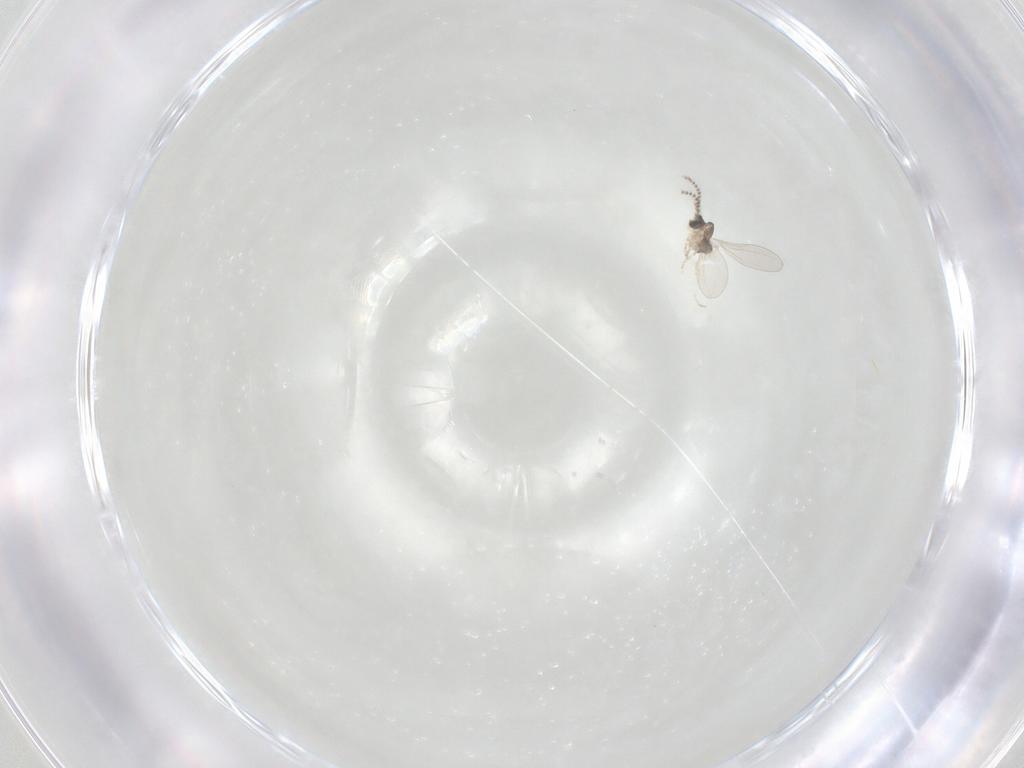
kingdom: Animalia
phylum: Arthropoda
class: Insecta
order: Diptera
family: Cecidomyiidae
